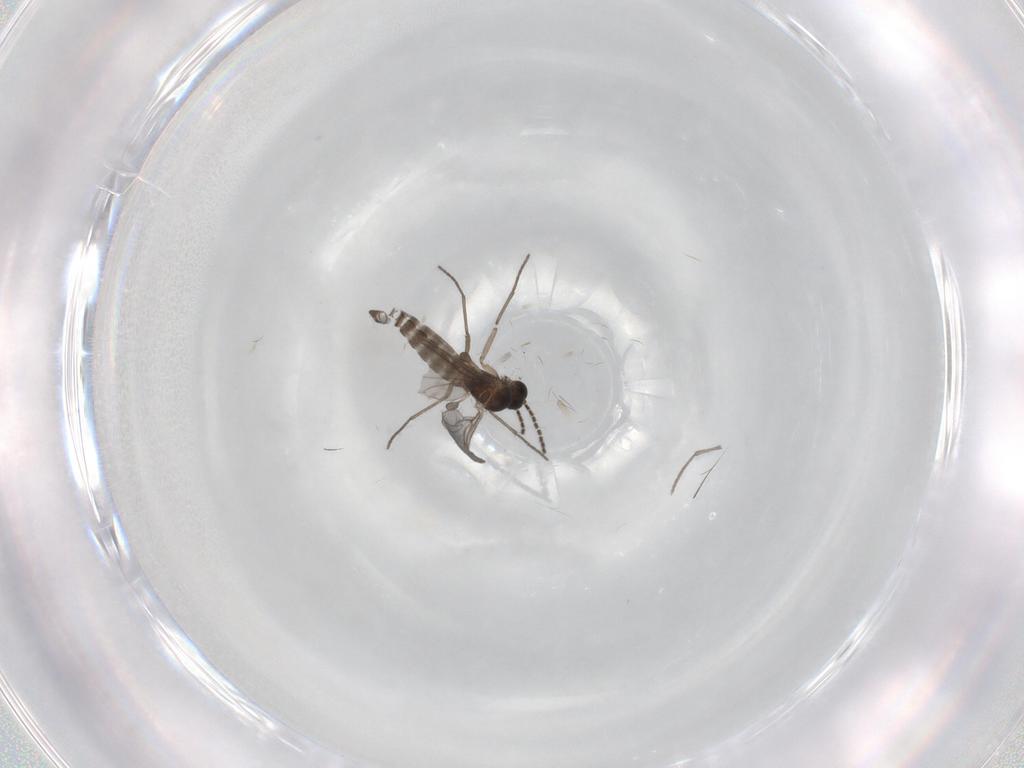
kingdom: Animalia
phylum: Arthropoda
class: Insecta
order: Diptera
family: Sciaridae
